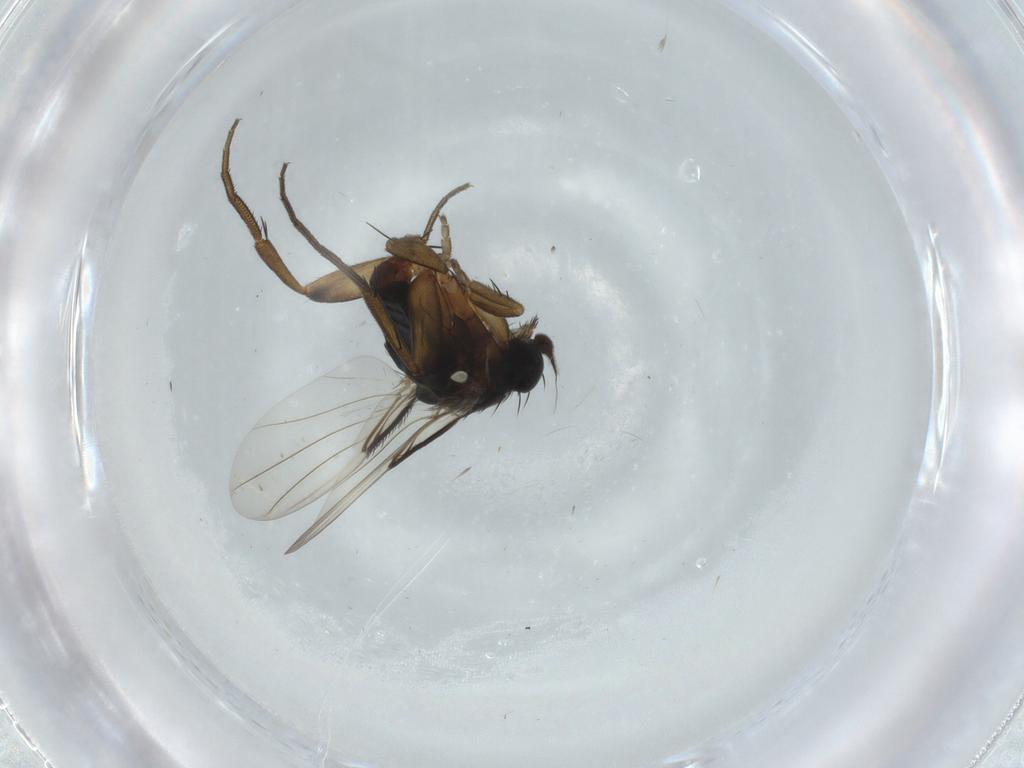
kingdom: Animalia
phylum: Arthropoda
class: Insecta
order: Diptera
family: Phoridae
